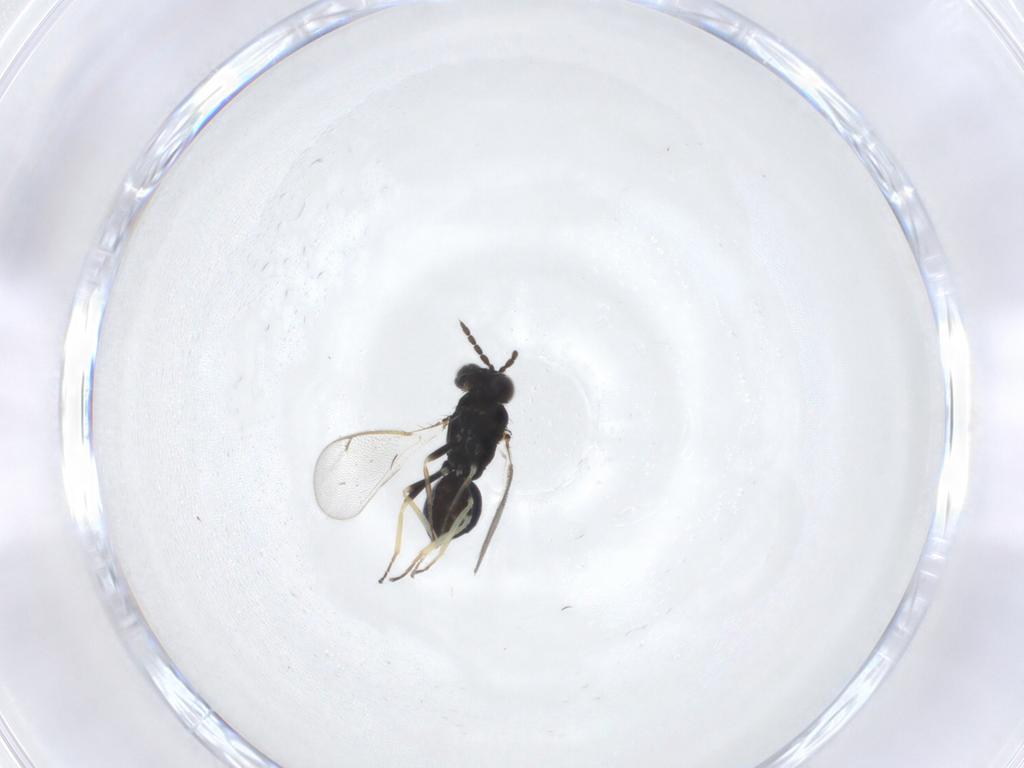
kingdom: Animalia
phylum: Arthropoda
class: Insecta
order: Hymenoptera
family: Eulophidae
